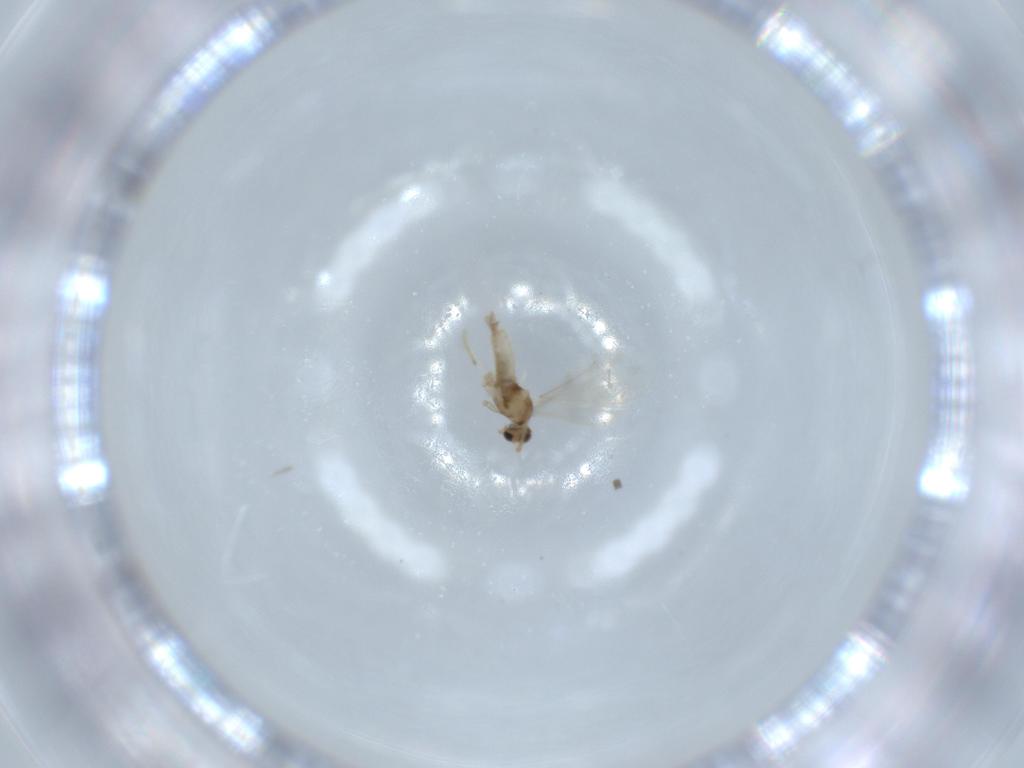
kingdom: Animalia
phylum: Arthropoda
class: Insecta
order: Diptera
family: Cecidomyiidae
